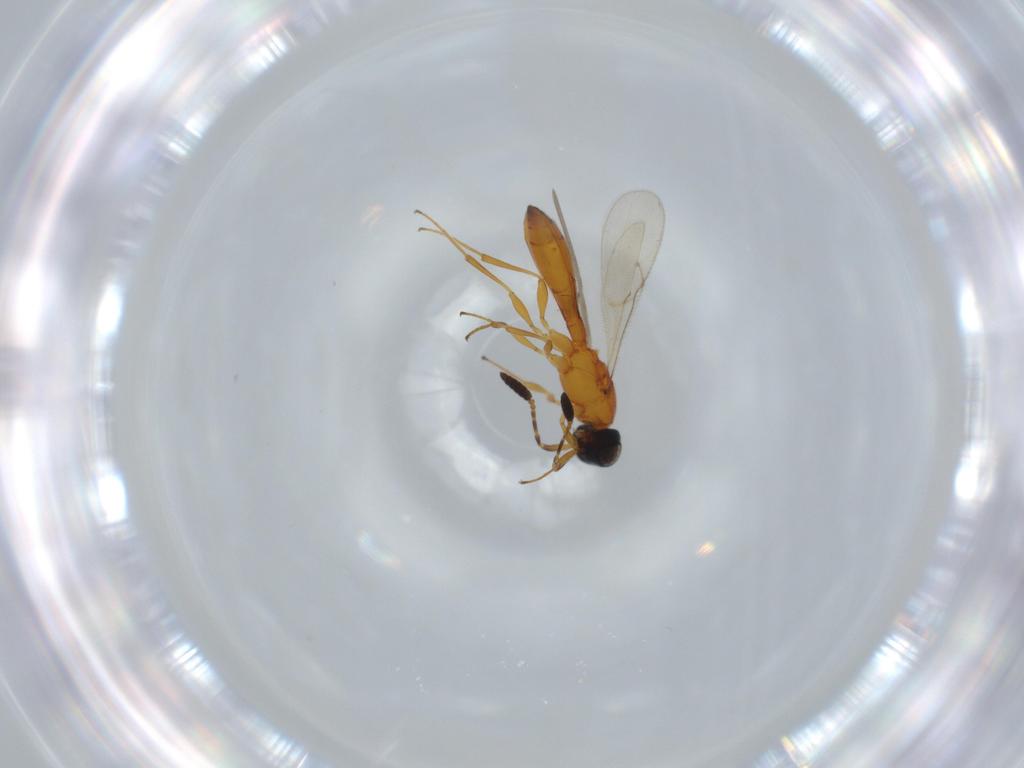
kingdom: Animalia
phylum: Arthropoda
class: Insecta
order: Hymenoptera
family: Scelionidae
